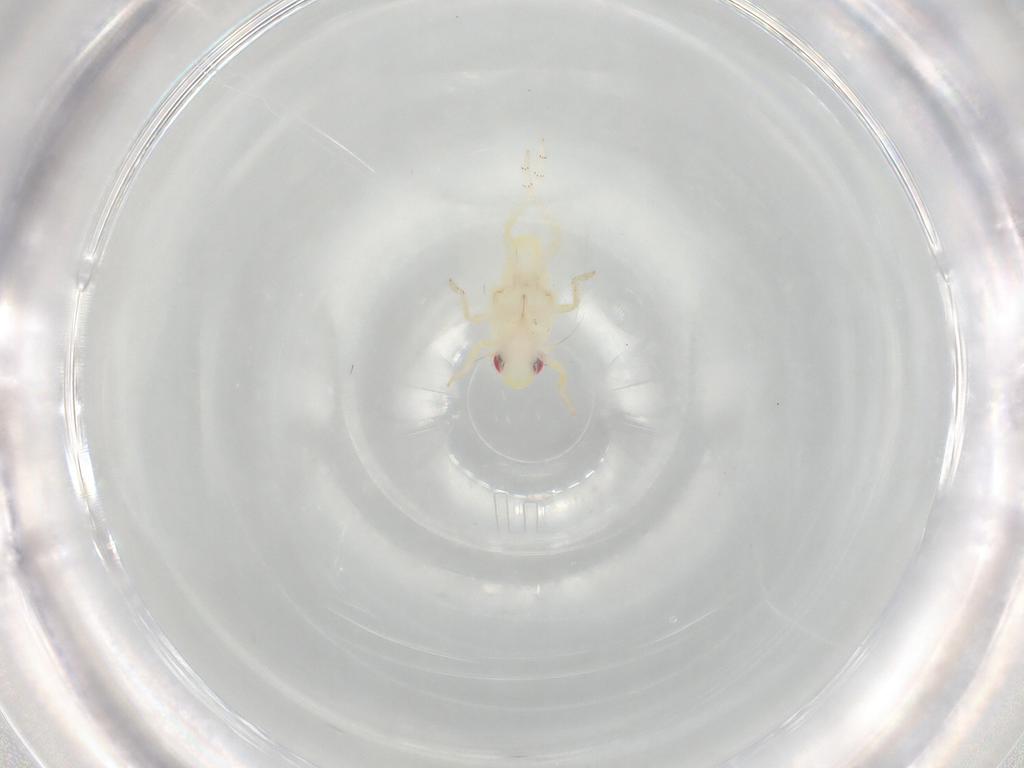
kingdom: Animalia
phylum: Arthropoda
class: Insecta
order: Hemiptera
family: Tropiduchidae
